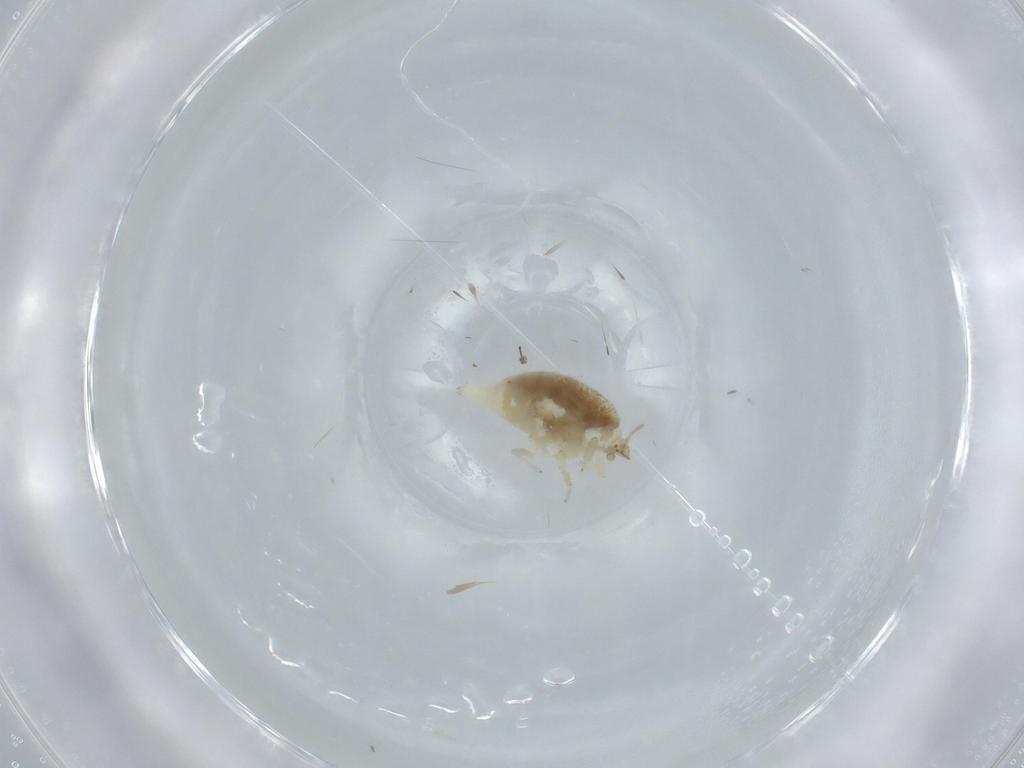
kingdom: Animalia
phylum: Arthropoda
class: Insecta
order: Neuroptera
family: Coniopterygidae
